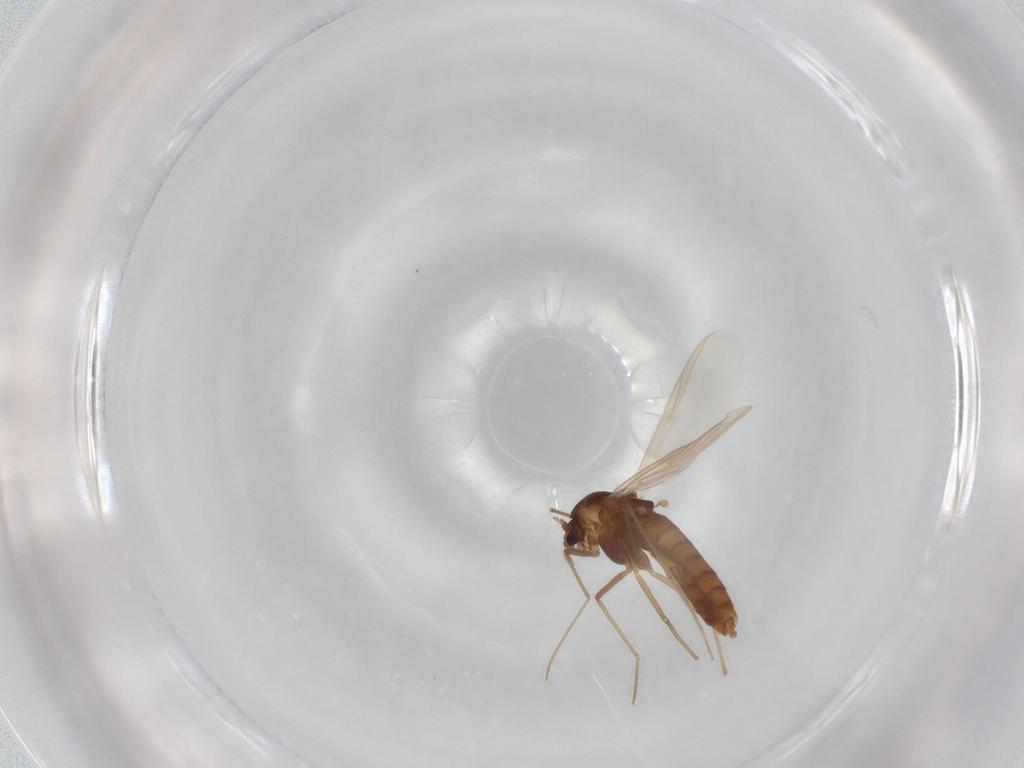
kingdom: Animalia
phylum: Arthropoda
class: Insecta
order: Diptera
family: Chironomidae
